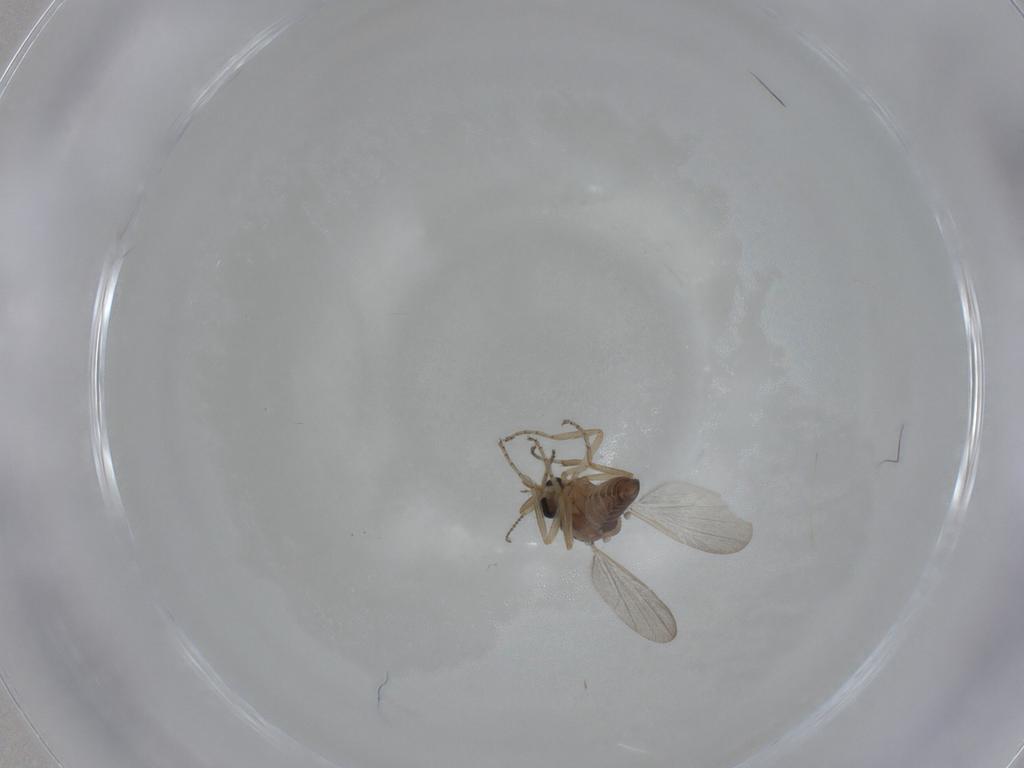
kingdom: Animalia
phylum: Arthropoda
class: Insecta
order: Diptera
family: Ceratopogonidae
